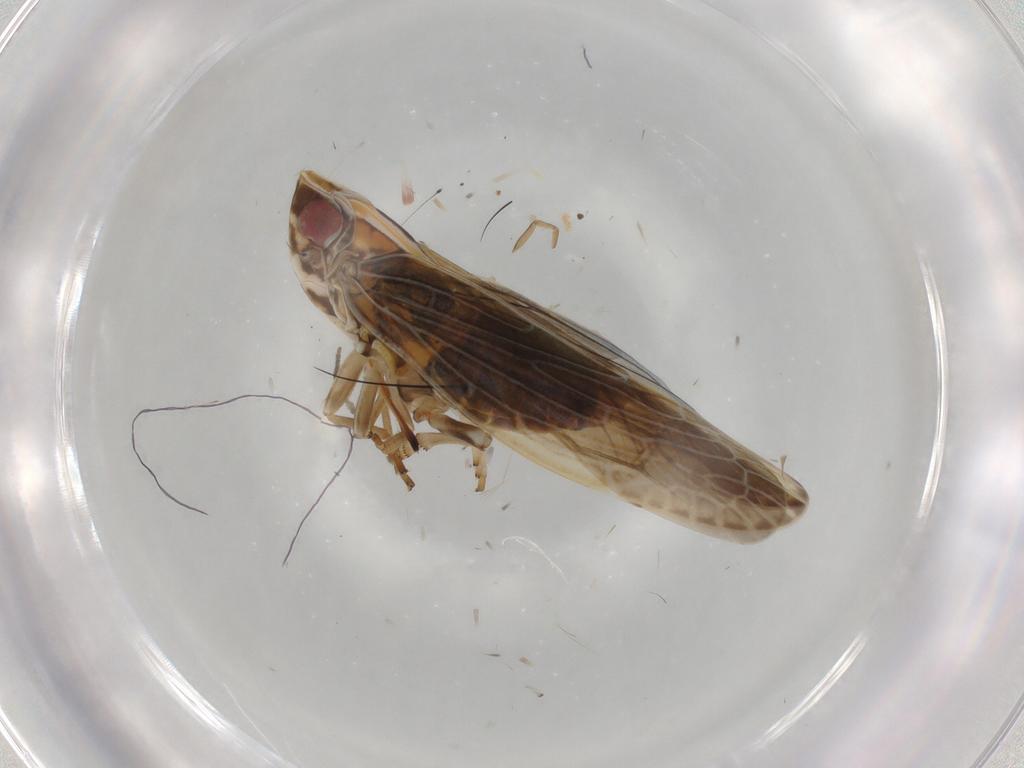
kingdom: Animalia
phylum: Arthropoda
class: Insecta
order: Hemiptera
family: Achilidae
